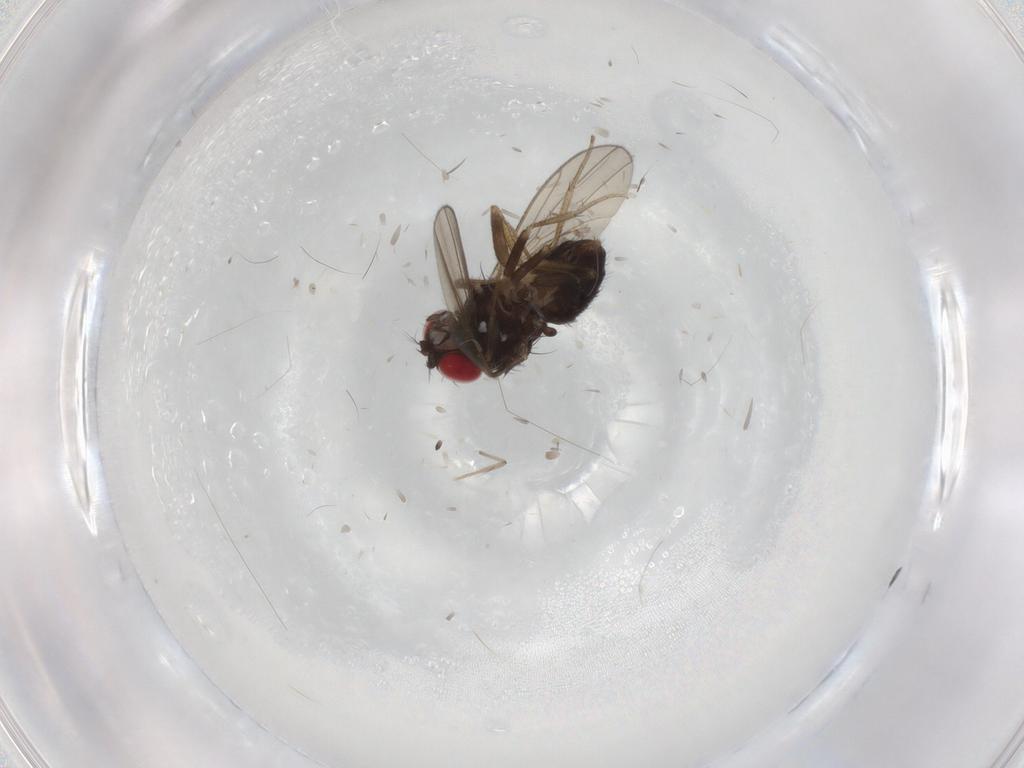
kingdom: Animalia
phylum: Arthropoda
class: Insecta
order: Diptera
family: Drosophilidae
